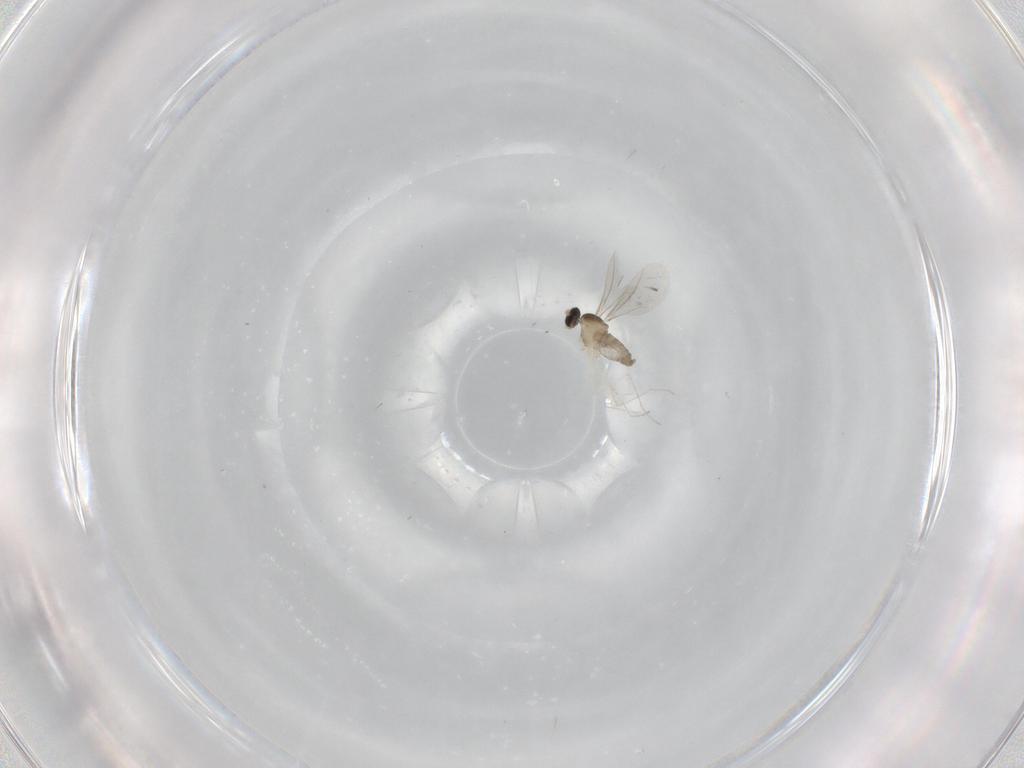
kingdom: Animalia
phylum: Arthropoda
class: Insecta
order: Diptera
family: Cecidomyiidae
